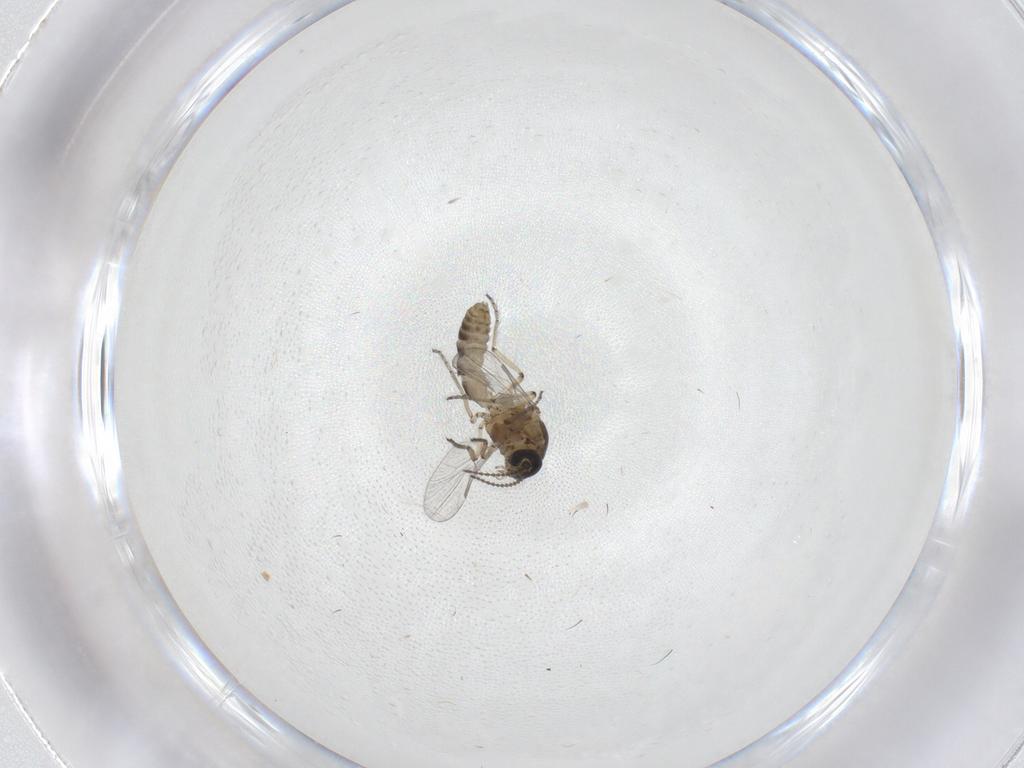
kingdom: Animalia
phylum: Arthropoda
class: Insecta
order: Diptera
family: Ceratopogonidae
